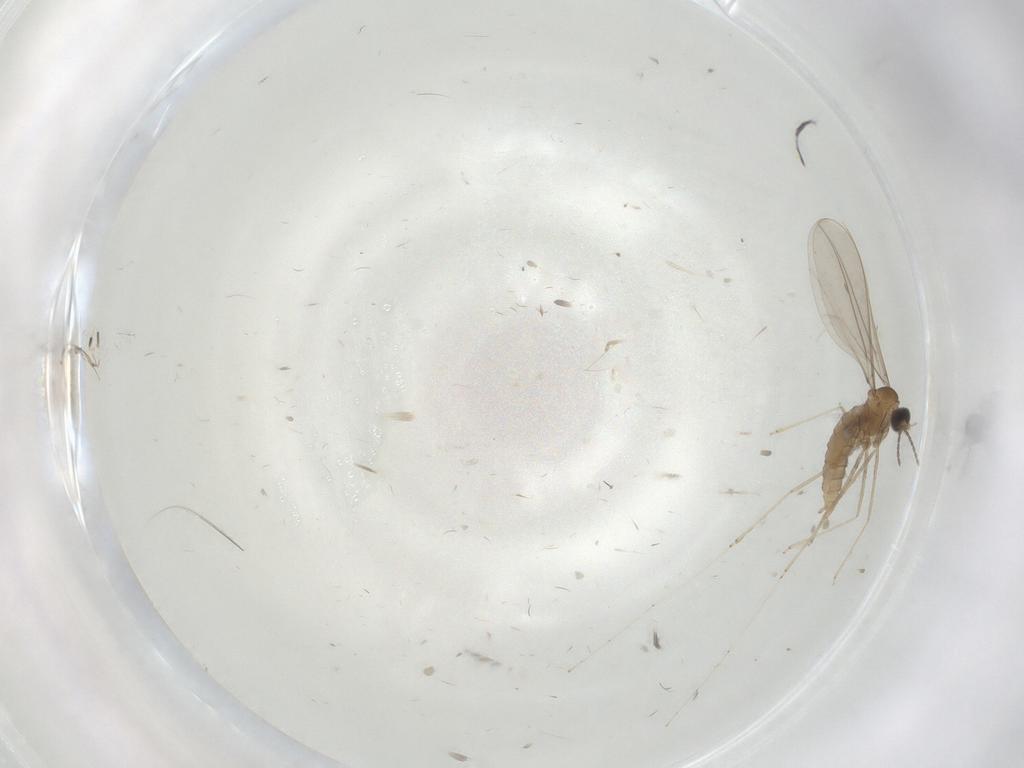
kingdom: Animalia
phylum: Arthropoda
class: Insecta
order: Diptera
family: Cecidomyiidae
